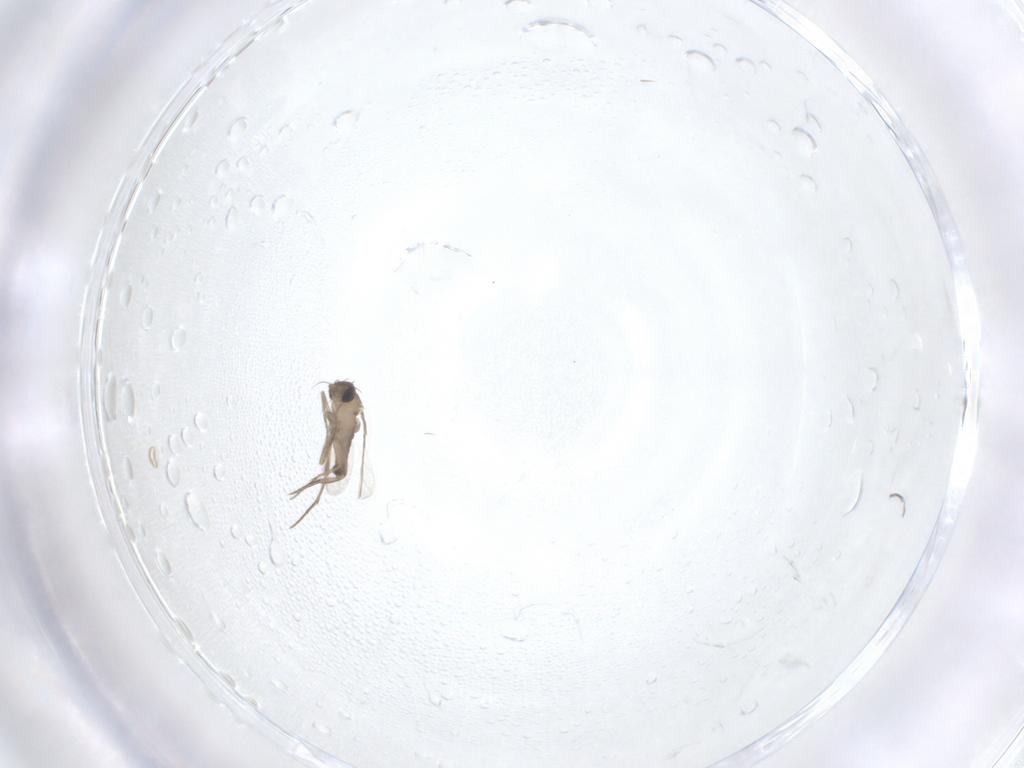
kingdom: Animalia
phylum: Arthropoda
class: Insecta
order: Diptera
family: Phoridae
